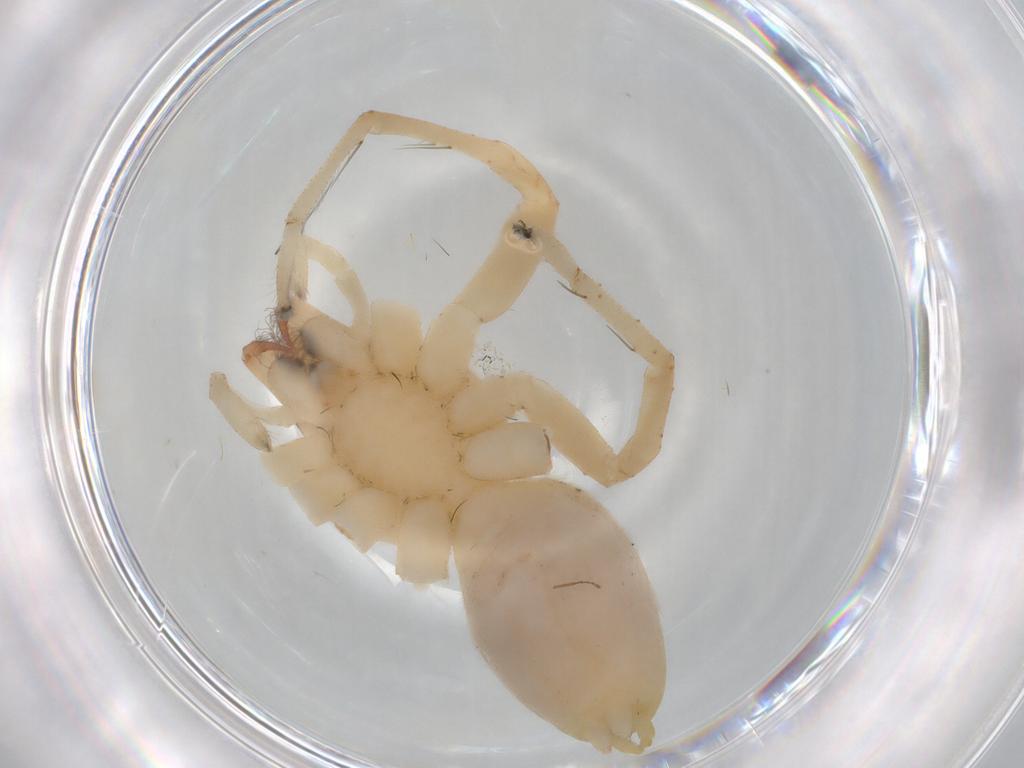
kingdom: Animalia
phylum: Arthropoda
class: Arachnida
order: Araneae
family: Anyphaenidae
